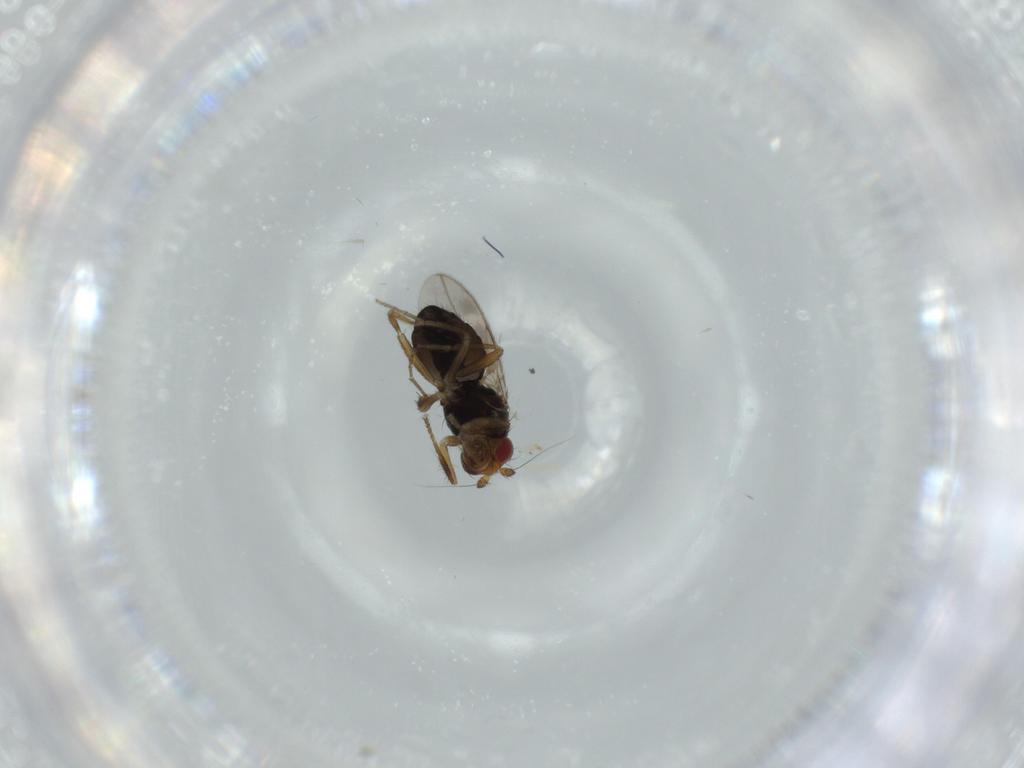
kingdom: Animalia
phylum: Arthropoda
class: Insecta
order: Diptera
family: Sphaeroceridae
